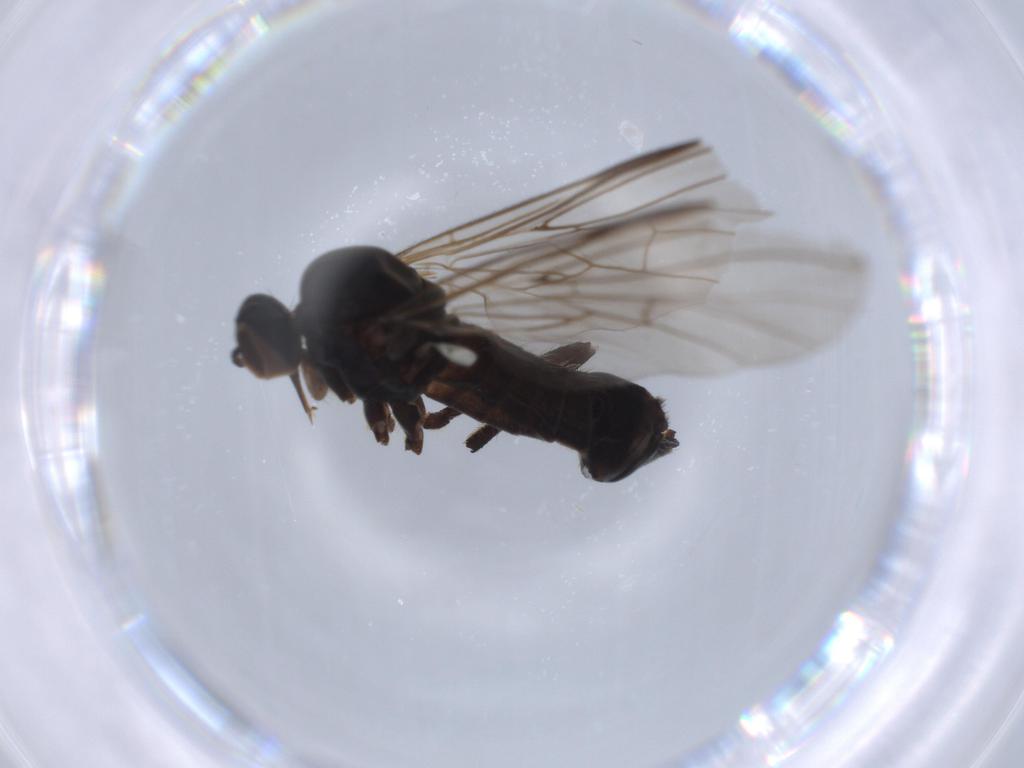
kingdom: Animalia
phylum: Arthropoda
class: Insecta
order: Diptera
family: Syrphidae
